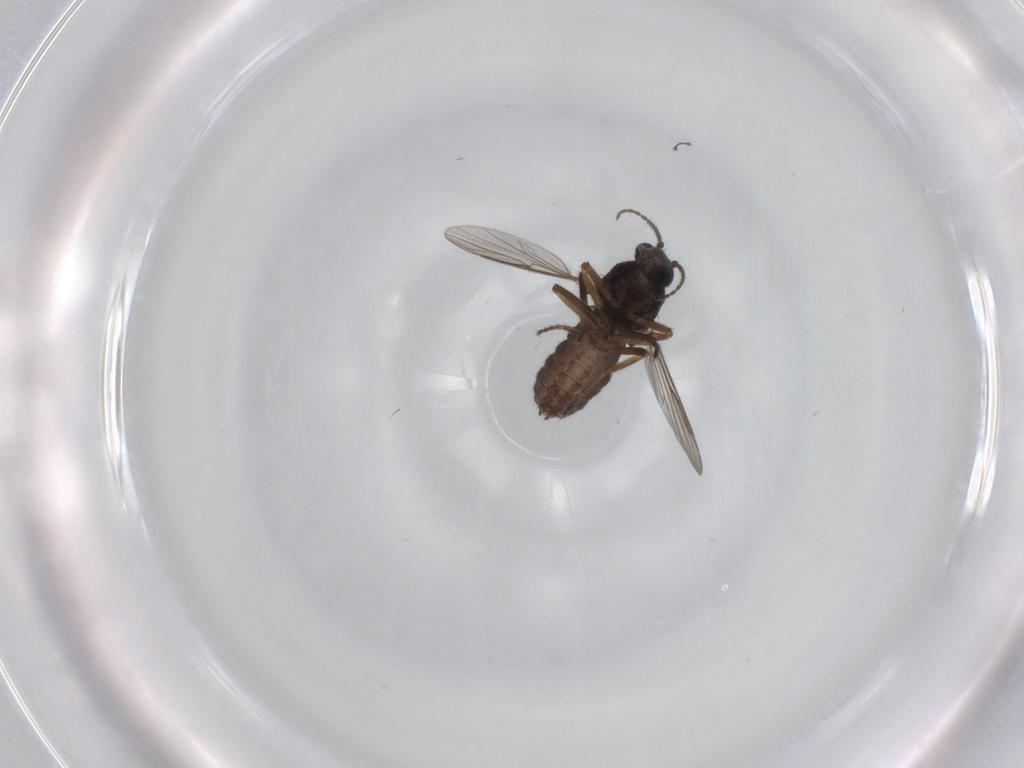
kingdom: Animalia
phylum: Arthropoda
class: Insecta
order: Diptera
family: Ceratopogonidae
